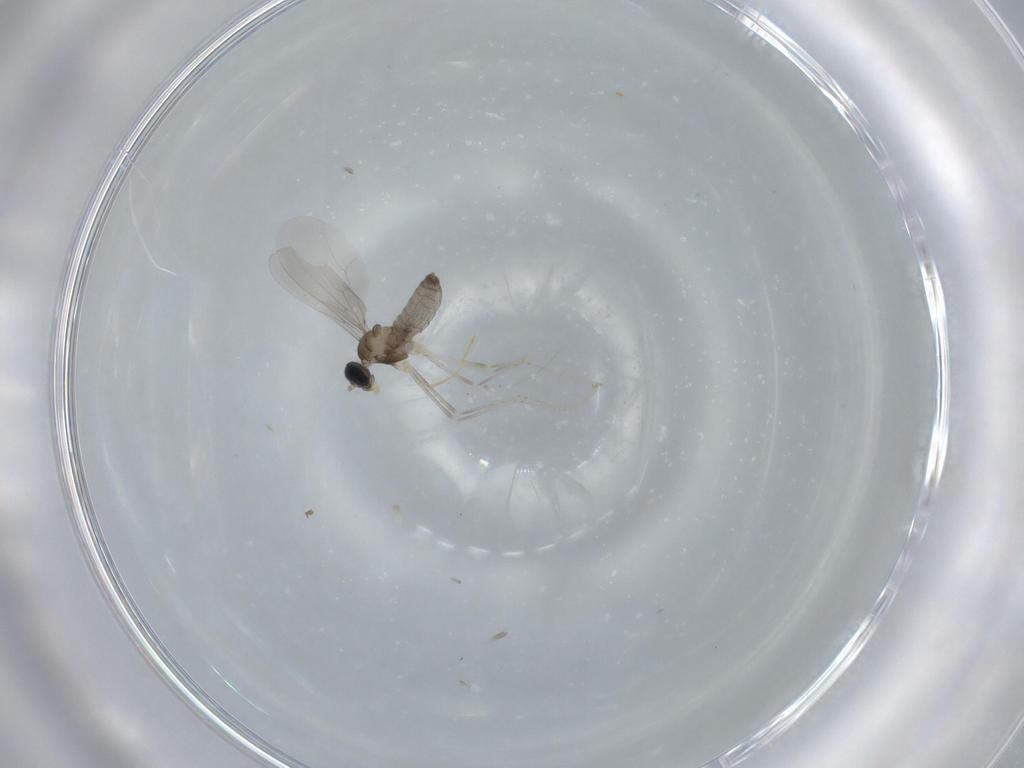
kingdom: Animalia
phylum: Arthropoda
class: Insecta
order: Diptera
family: Cecidomyiidae
